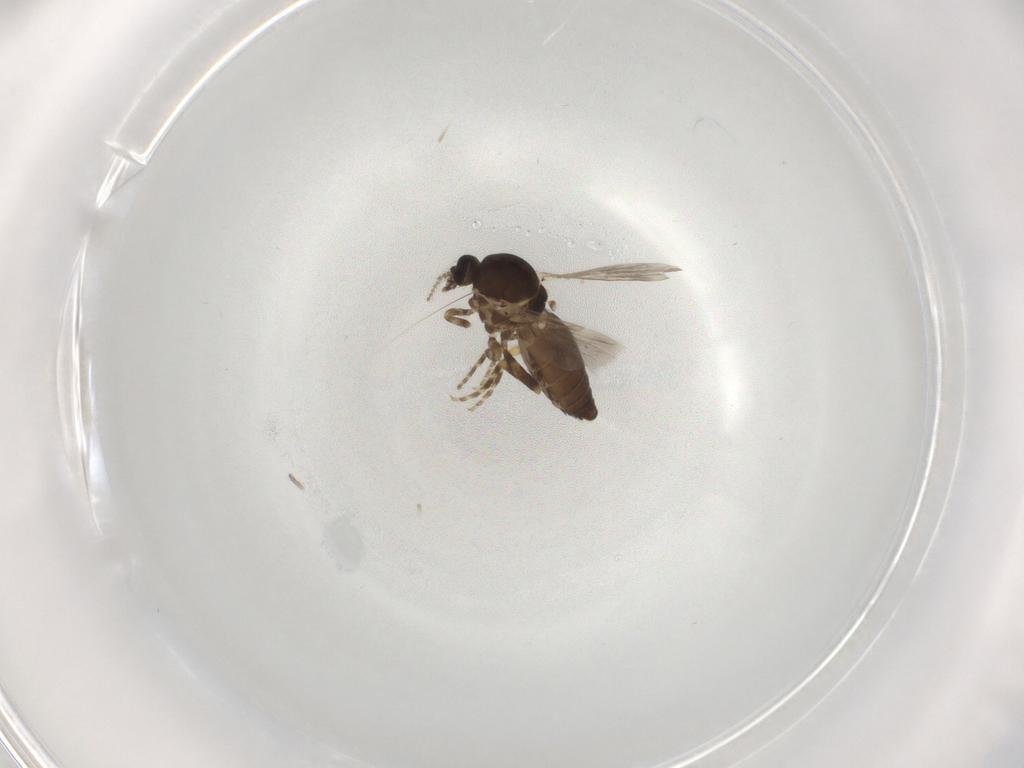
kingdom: Animalia
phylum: Arthropoda
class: Insecta
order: Diptera
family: Ceratopogonidae
